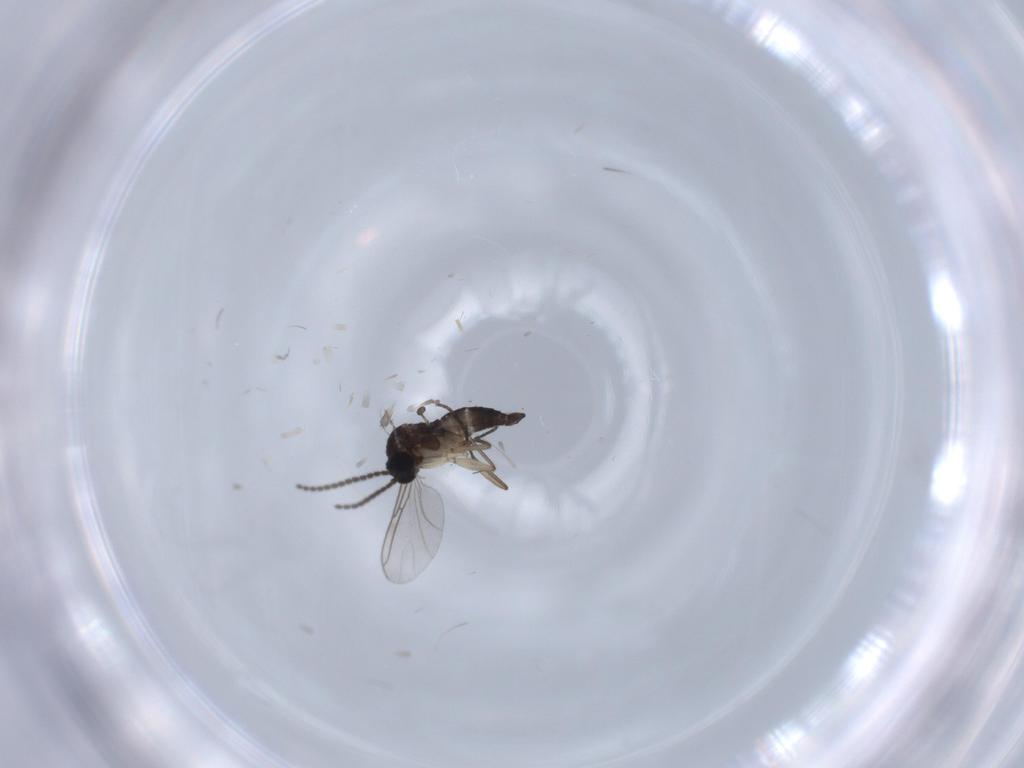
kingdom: Animalia
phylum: Arthropoda
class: Insecta
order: Diptera
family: Sciaridae
